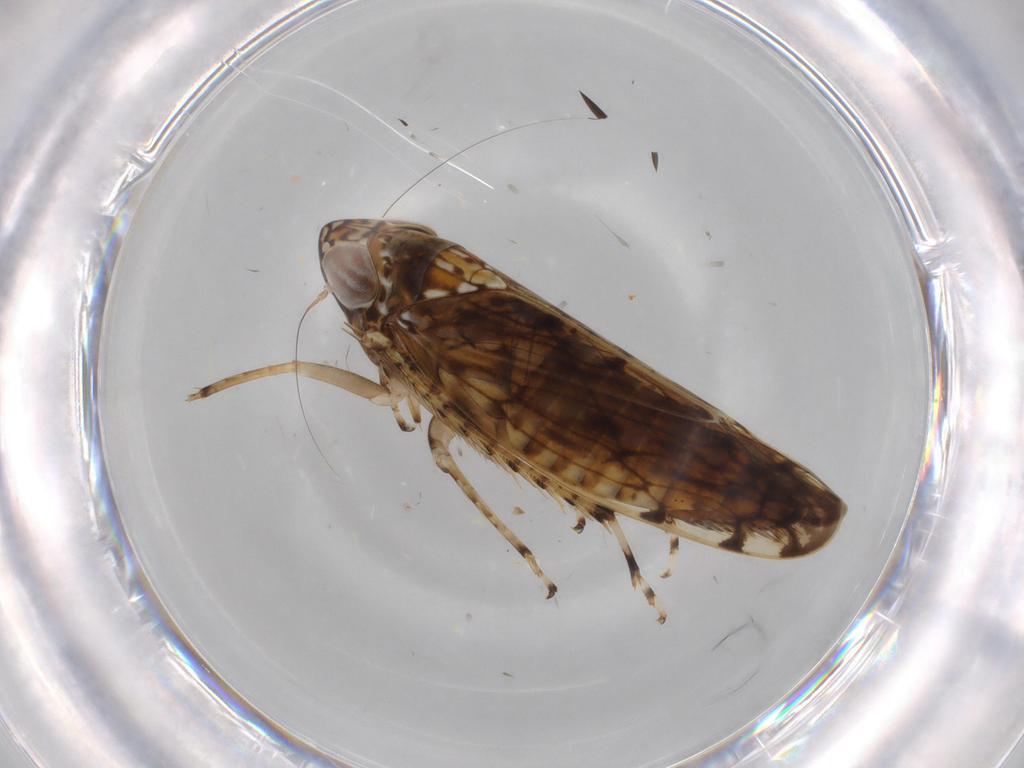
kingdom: Animalia
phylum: Arthropoda
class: Insecta
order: Hemiptera
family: Cicadellidae
